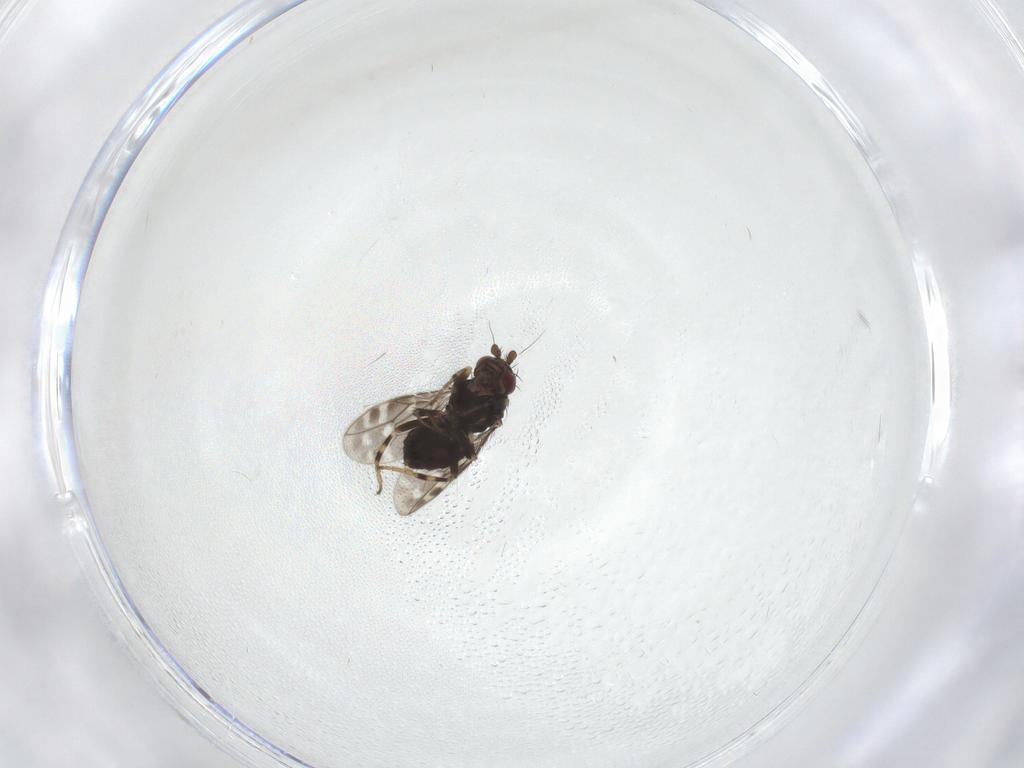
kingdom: Animalia
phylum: Arthropoda
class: Insecta
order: Diptera
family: Sphaeroceridae
